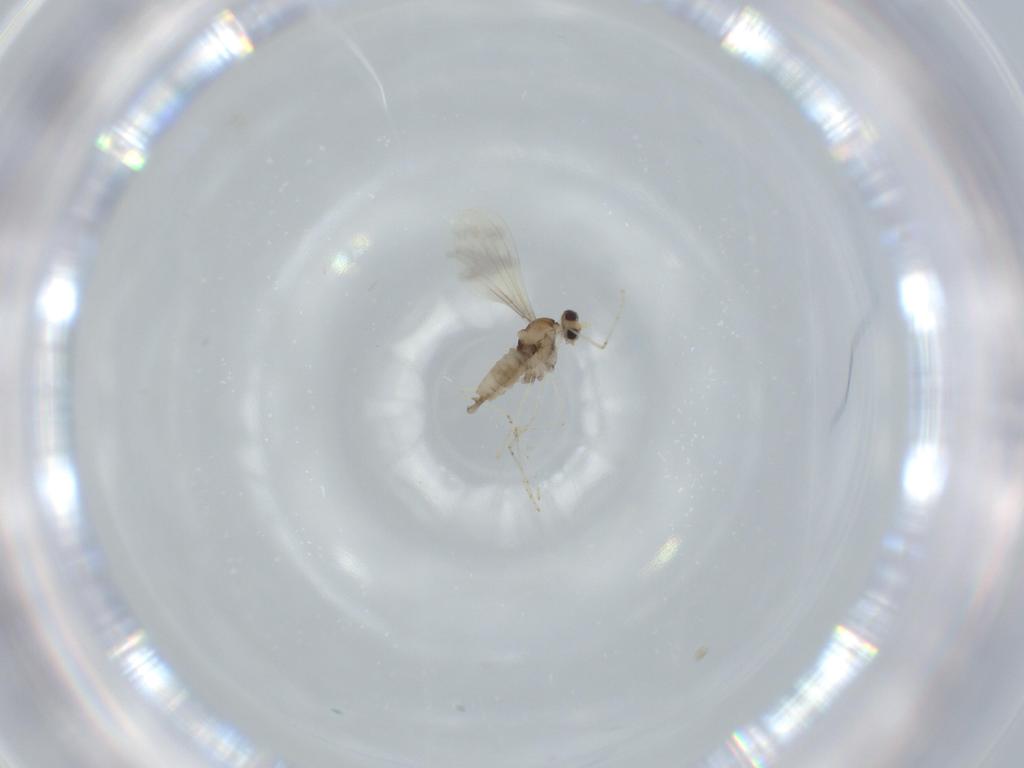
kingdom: Animalia
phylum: Arthropoda
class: Insecta
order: Diptera
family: Cecidomyiidae
